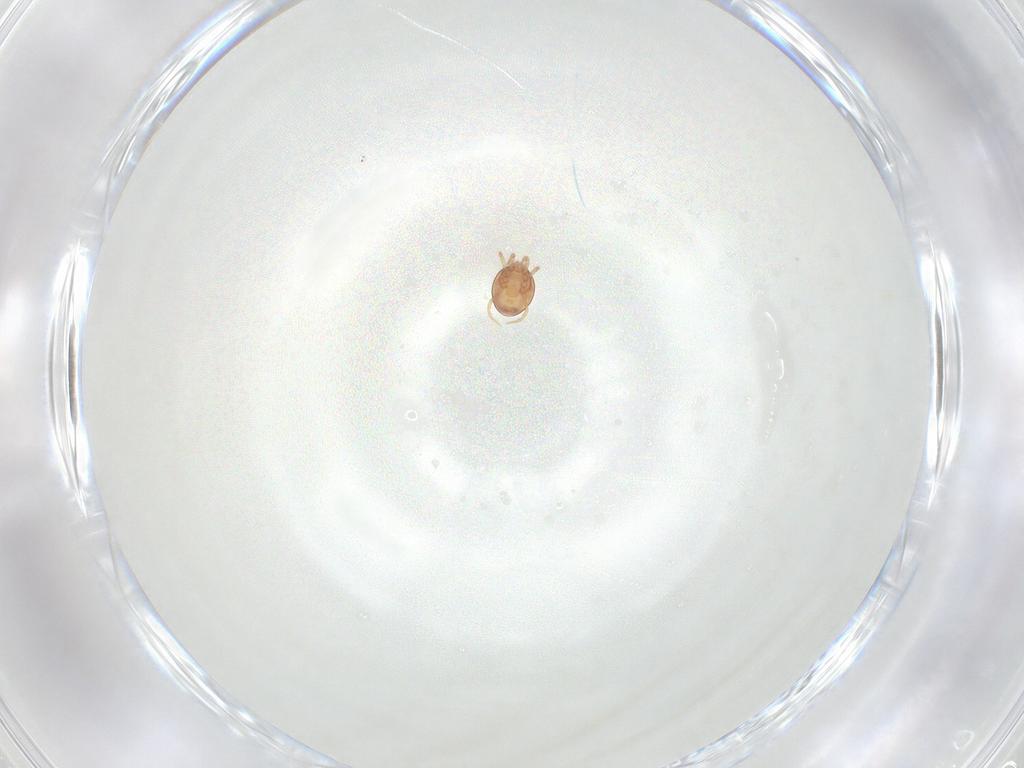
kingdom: Animalia
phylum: Arthropoda
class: Arachnida
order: Mesostigmata
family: Phytoseiidae
